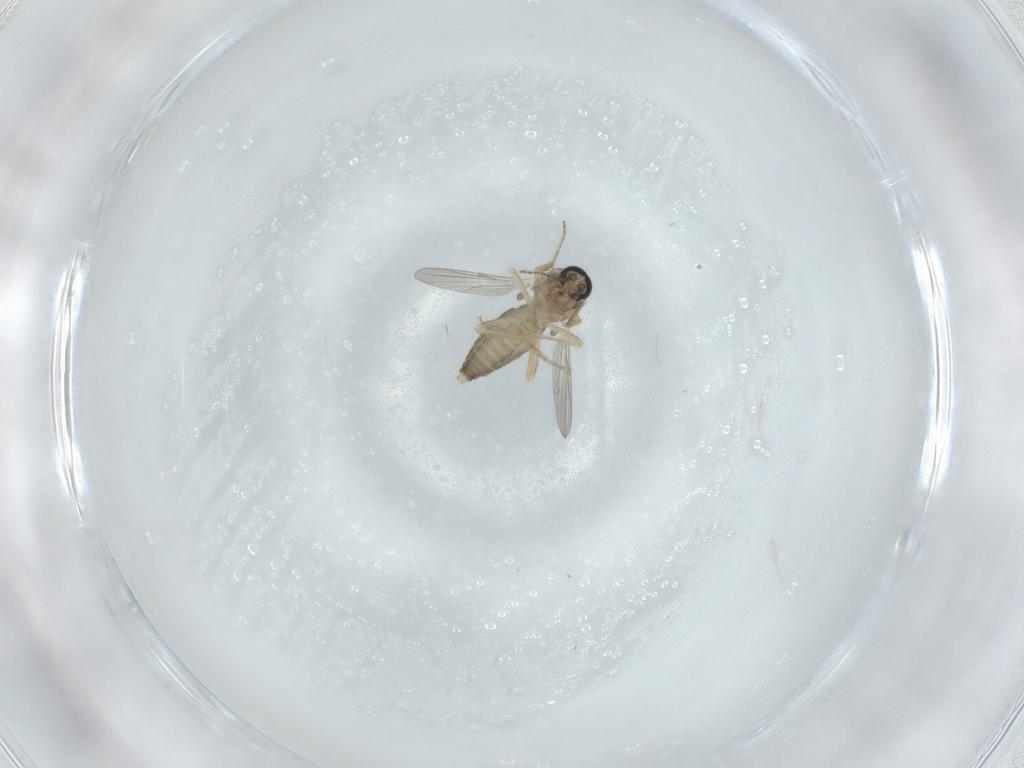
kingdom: Animalia
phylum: Arthropoda
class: Insecta
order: Diptera
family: Ceratopogonidae
